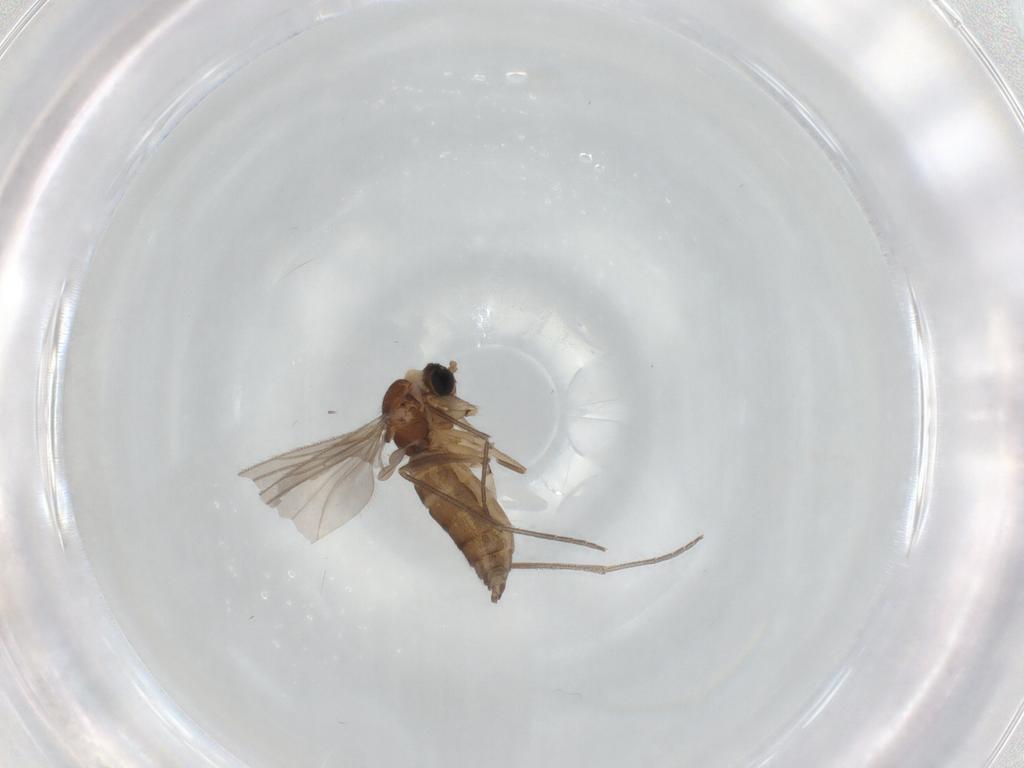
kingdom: Animalia
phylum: Arthropoda
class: Insecta
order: Diptera
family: Sciaridae
